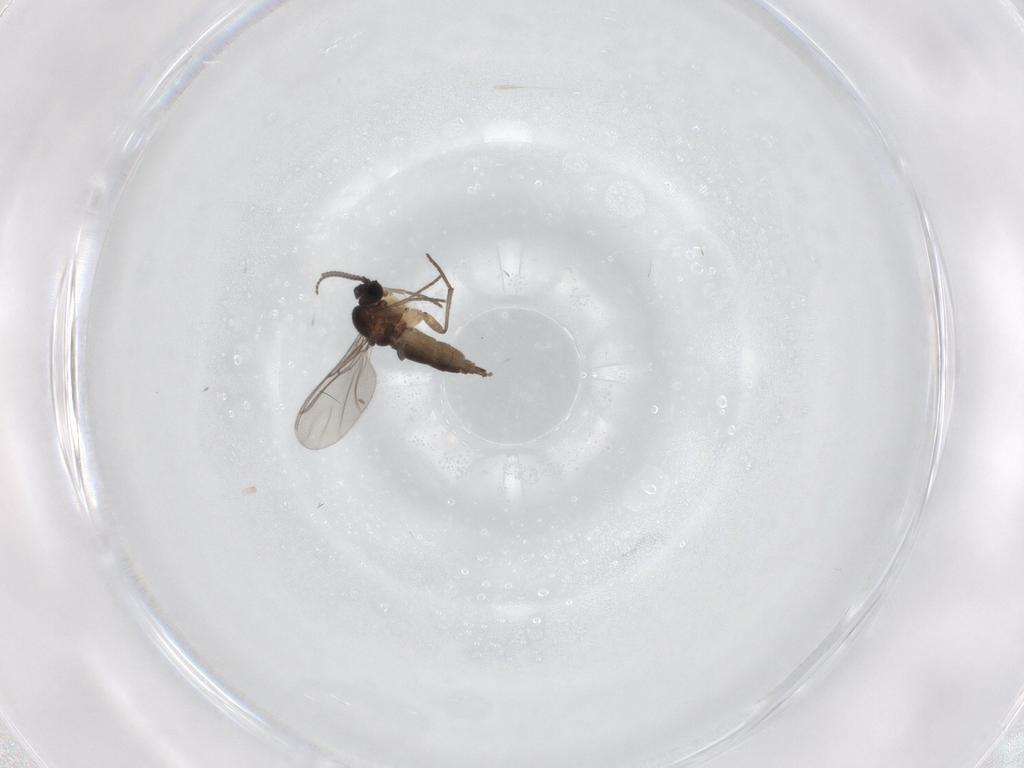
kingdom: Animalia
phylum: Arthropoda
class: Insecta
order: Diptera
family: Sciaridae
